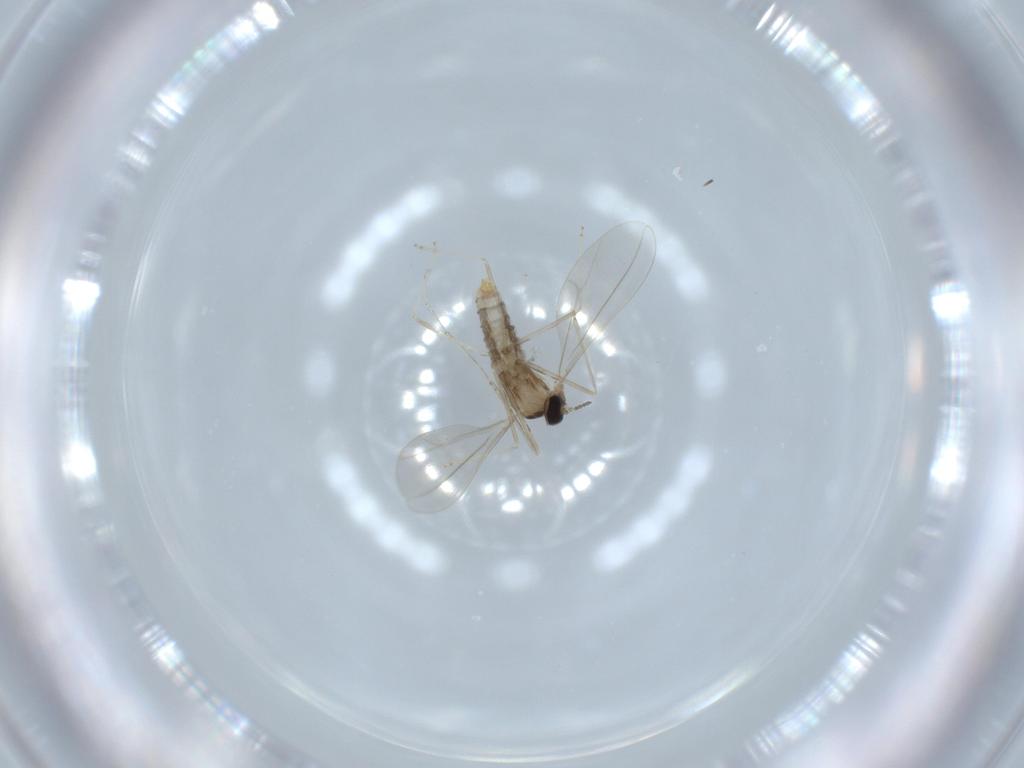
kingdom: Animalia
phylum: Arthropoda
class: Insecta
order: Diptera
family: Cecidomyiidae
